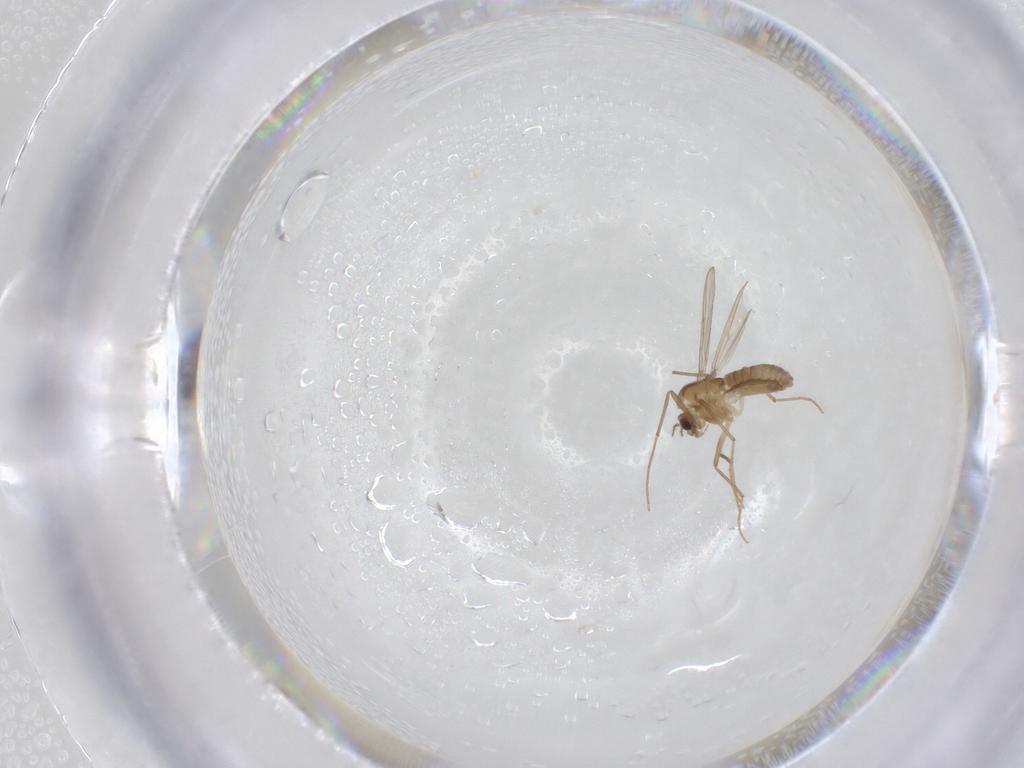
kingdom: Animalia
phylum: Arthropoda
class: Insecta
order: Diptera
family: Chironomidae
